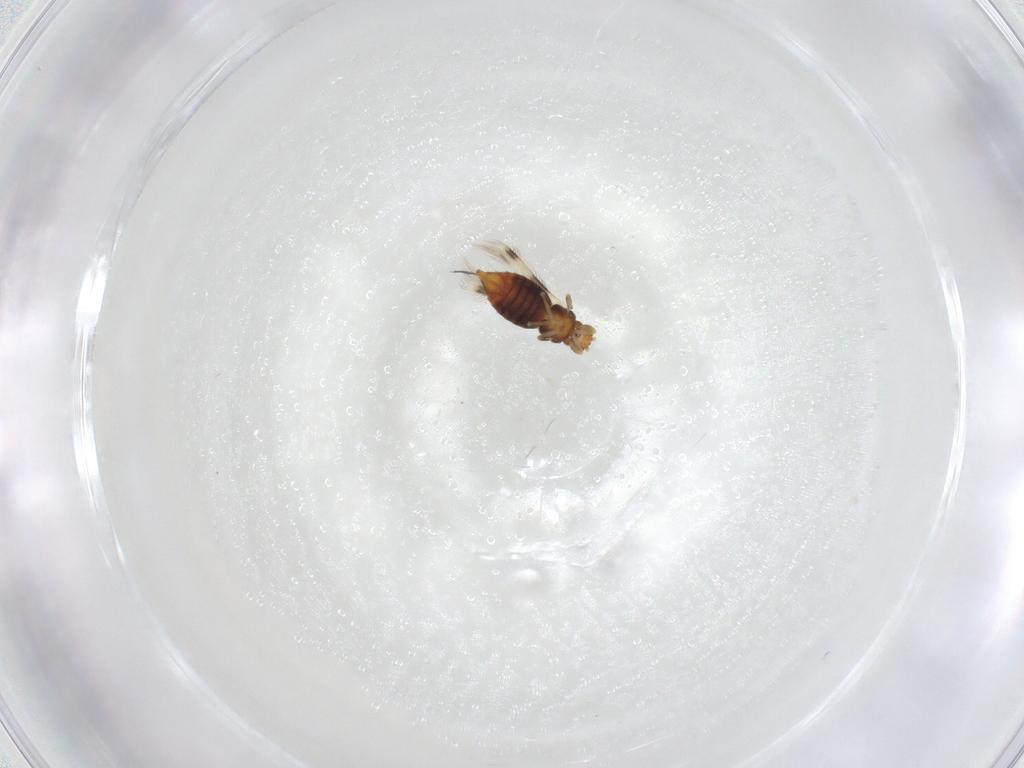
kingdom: Animalia
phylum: Arthropoda
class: Insecta
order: Thysanoptera
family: Thripidae
